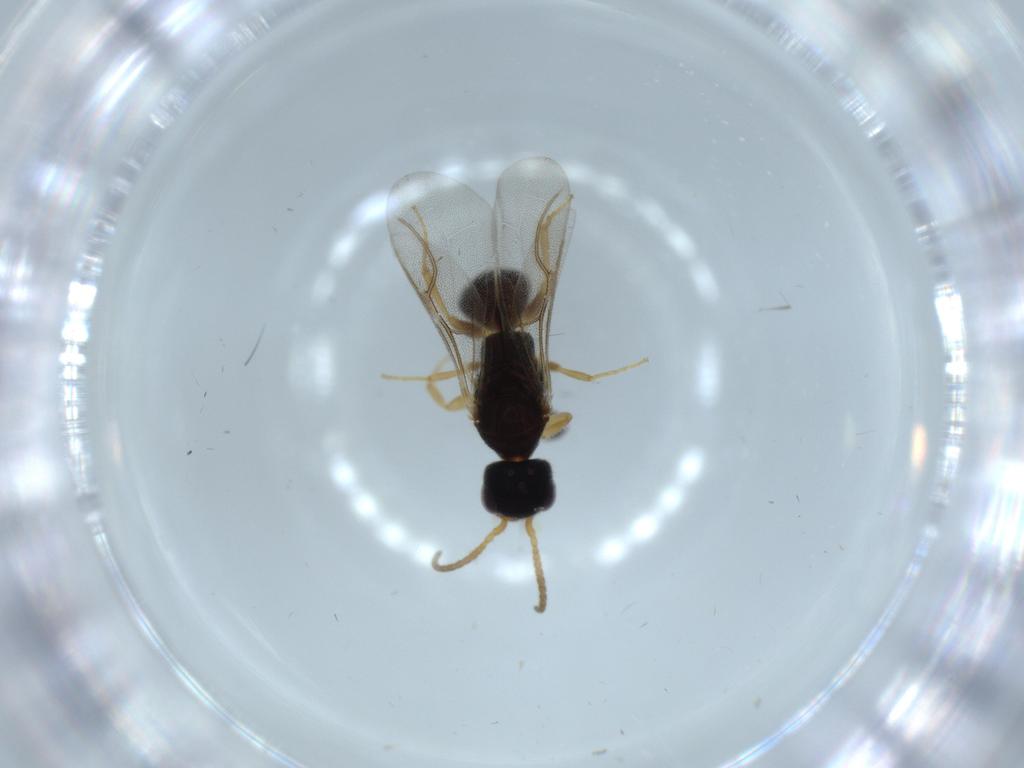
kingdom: Animalia
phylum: Arthropoda
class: Insecta
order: Hymenoptera
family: Bethylidae
